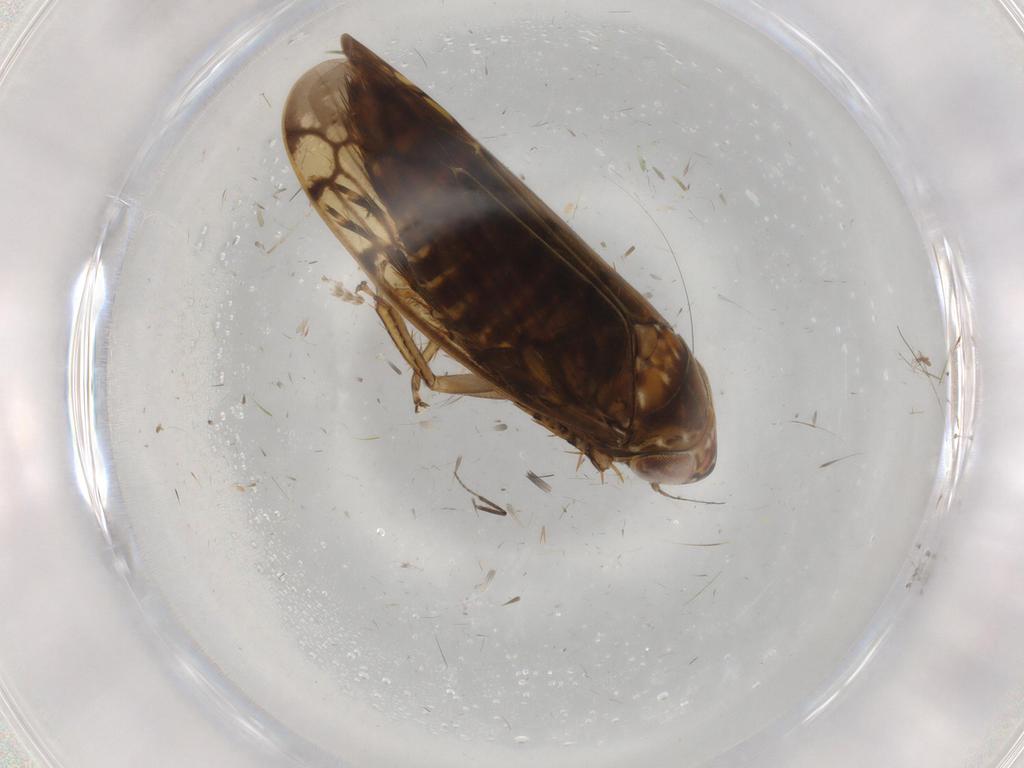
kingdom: Animalia
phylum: Arthropoda
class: Insecta
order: Hemiptera
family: Cicadellidae
